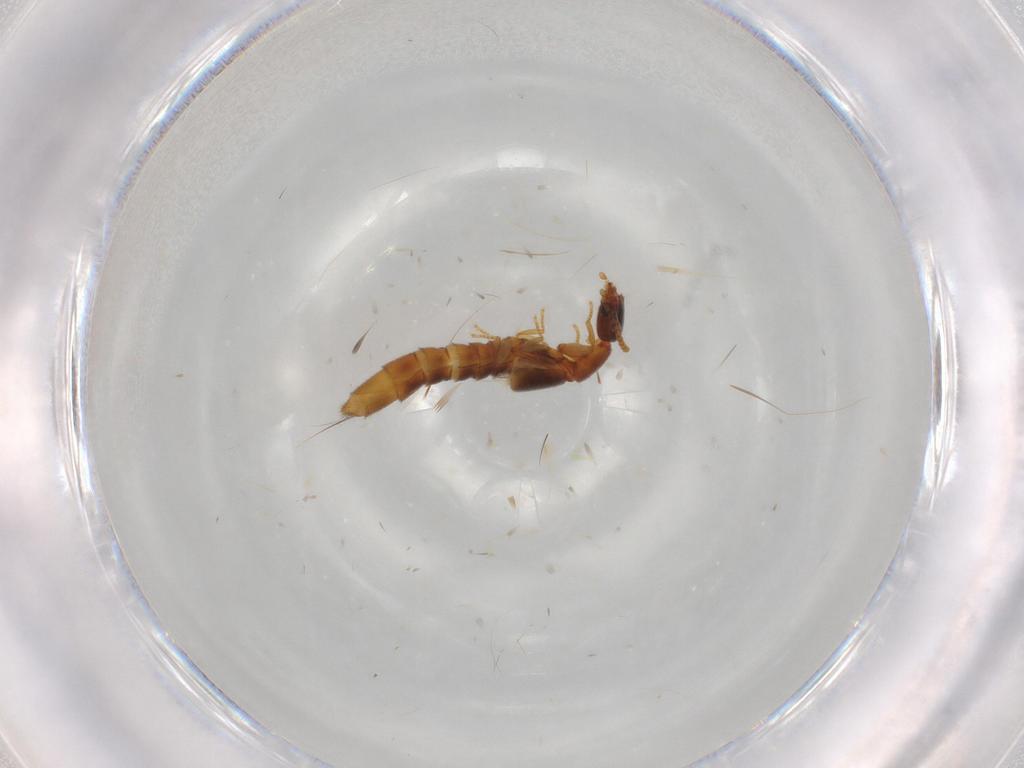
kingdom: Animalia
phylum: Arthropoda
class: Insecta
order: Coleoptera
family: Staphylinidae
